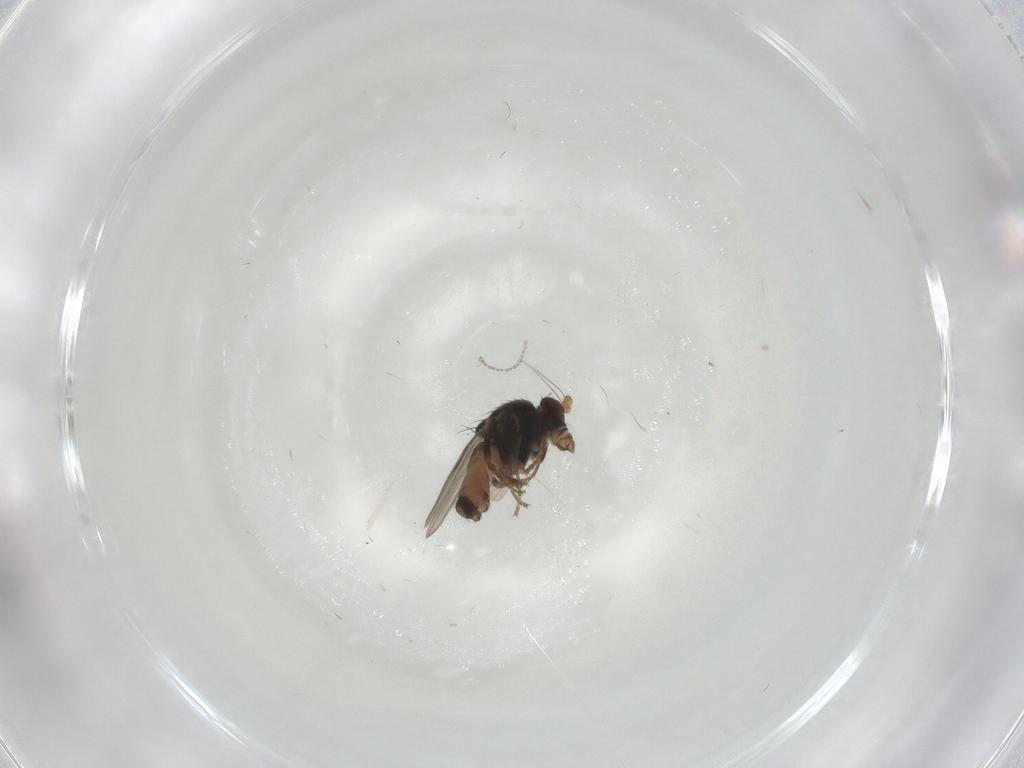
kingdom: Animalia
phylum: Arthropoda
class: Insecta
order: Diptera
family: Sphaeroceridae
